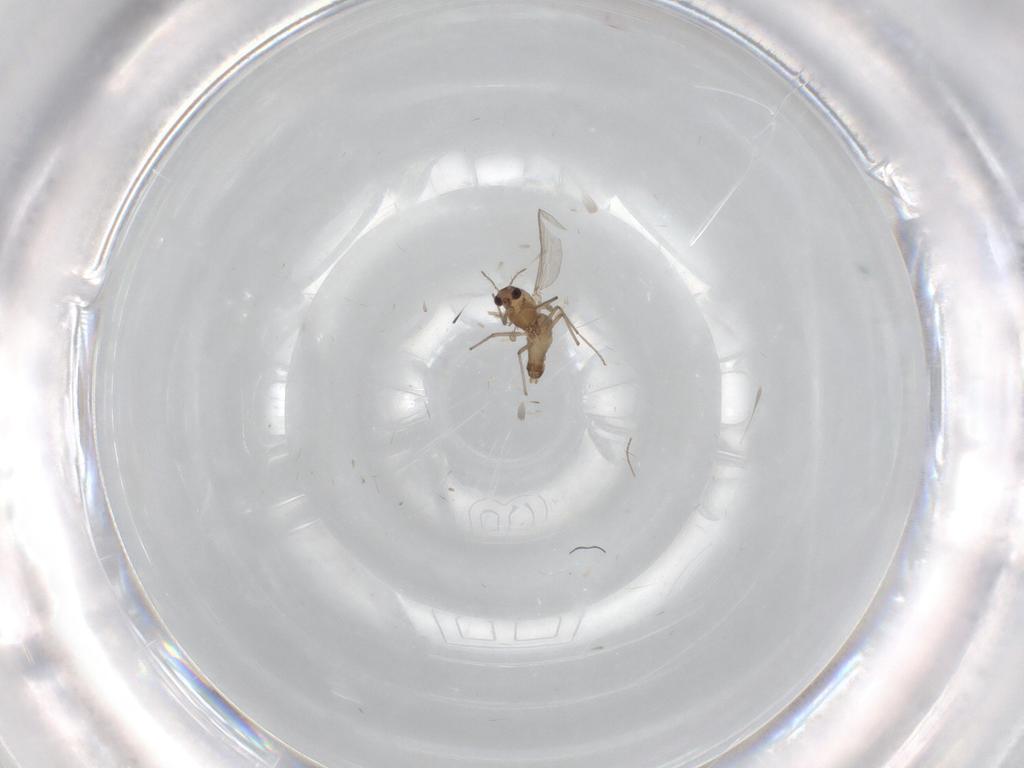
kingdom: Animalia
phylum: Arthropoda
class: Insecta
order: Diptera
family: Chironomidae
